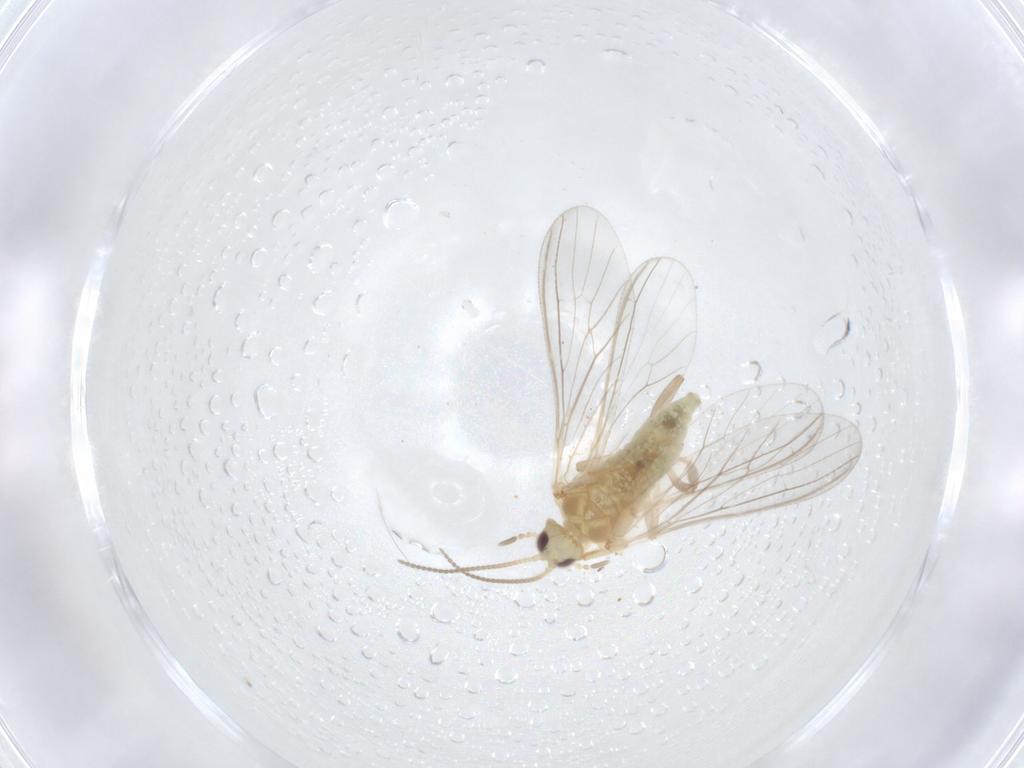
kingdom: Animalia
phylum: Arthropoda
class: Insecta
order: Neuroptera
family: Coniopterygidae
